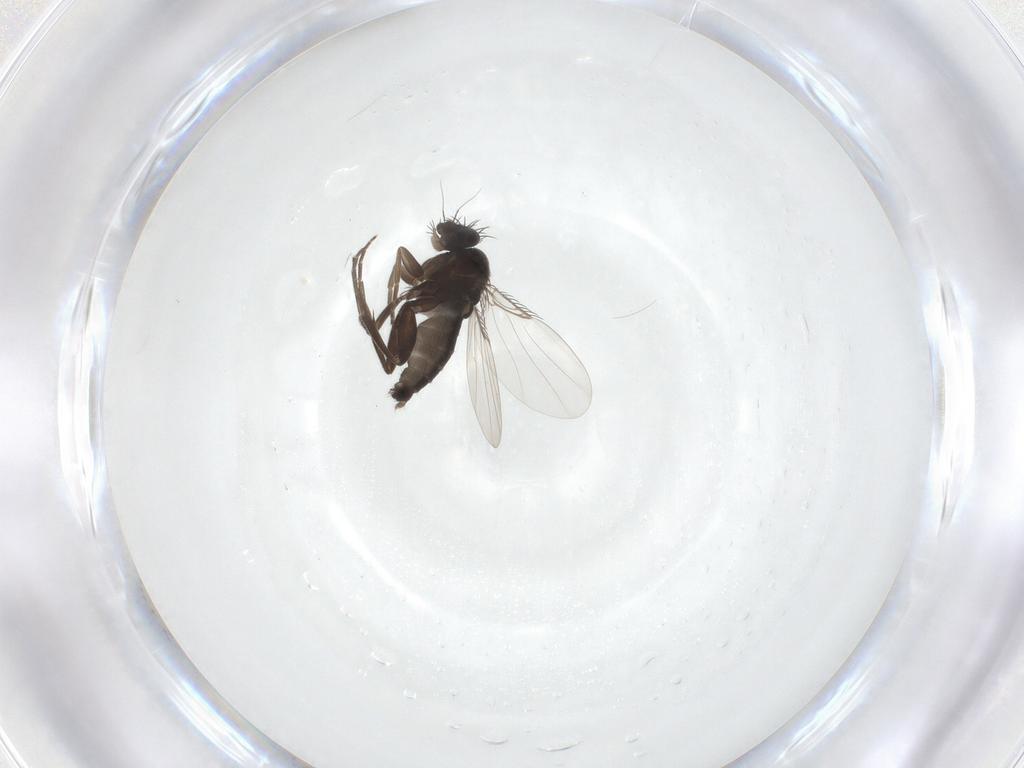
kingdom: Animalia
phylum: Arthropoda
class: Insecta
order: Diptera
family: Phoridae
